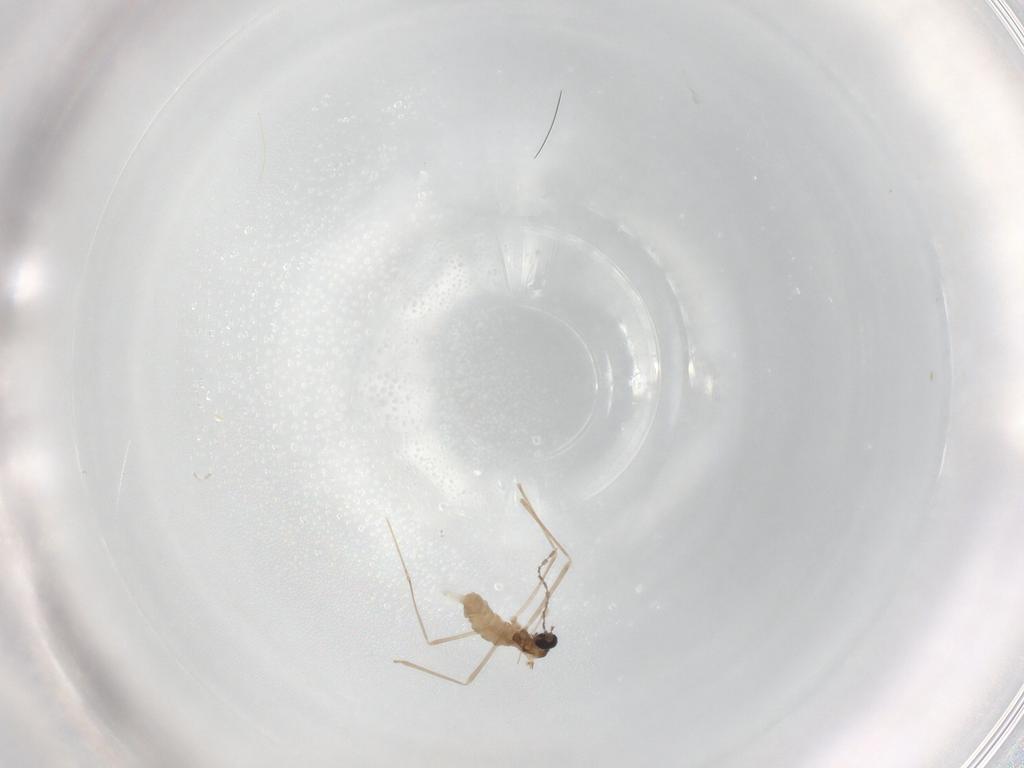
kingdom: Animalia
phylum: Arthropoda
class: Insecta
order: Diptera
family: Cecidomyiidae
